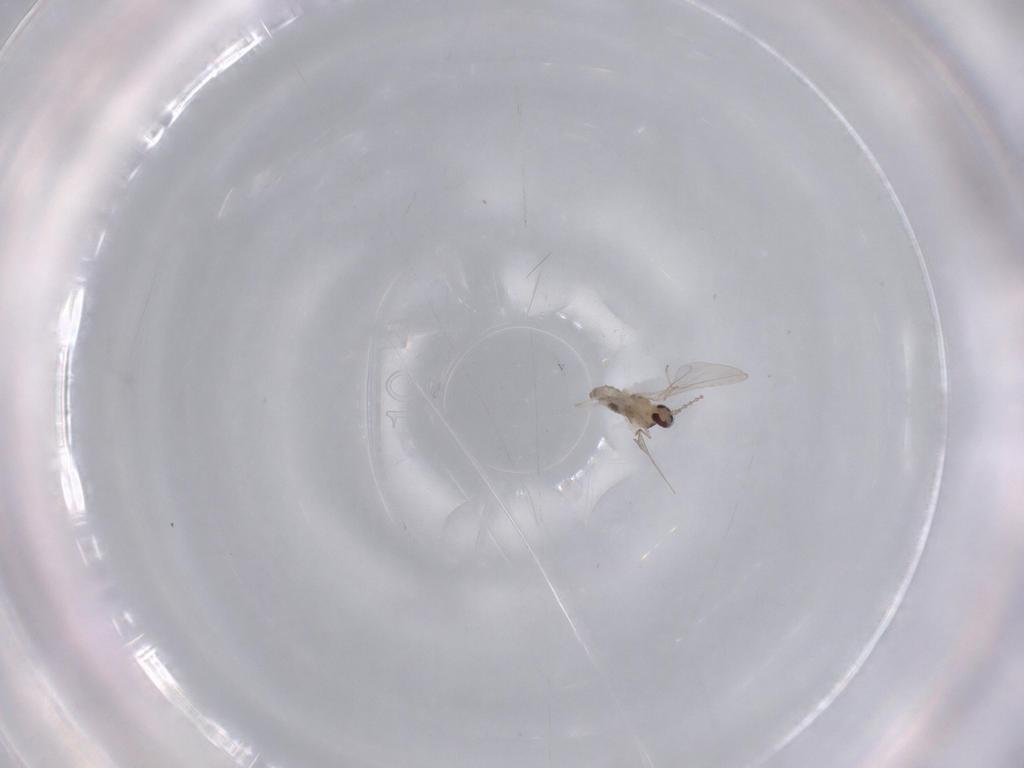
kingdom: Animalia
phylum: Arthropoda
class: Insecta
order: Diptera
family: Cecidomyiidae
